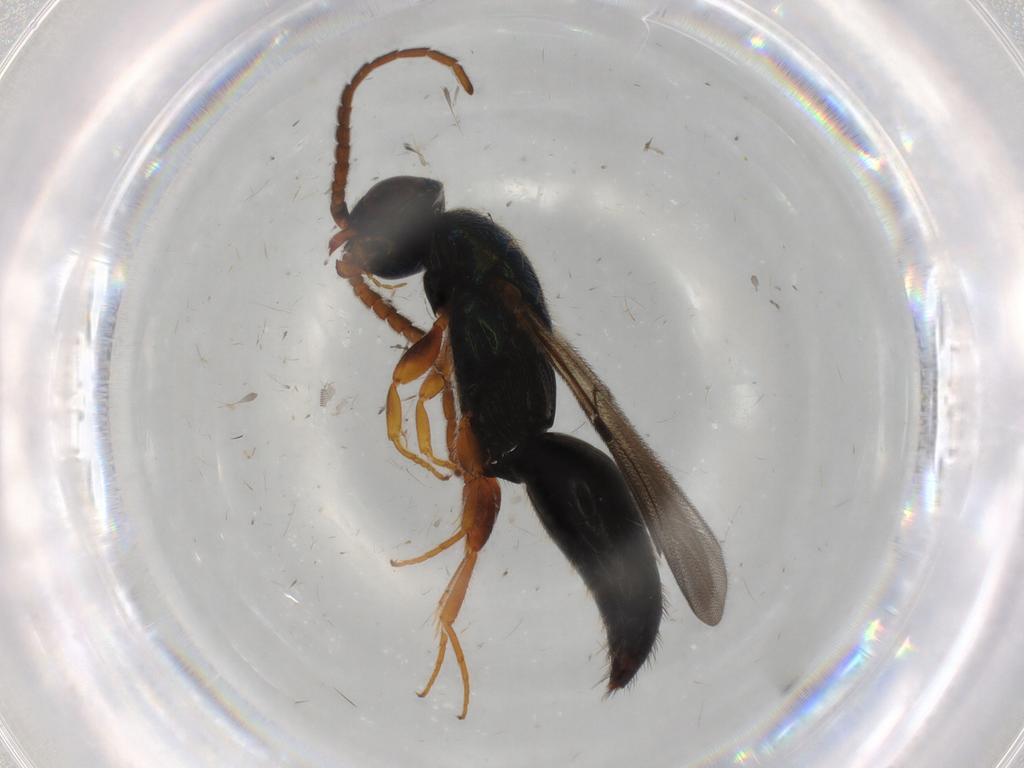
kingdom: Animalia
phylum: Arthropoda
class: Insecta
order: Hymenoptera
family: Bethylidae
